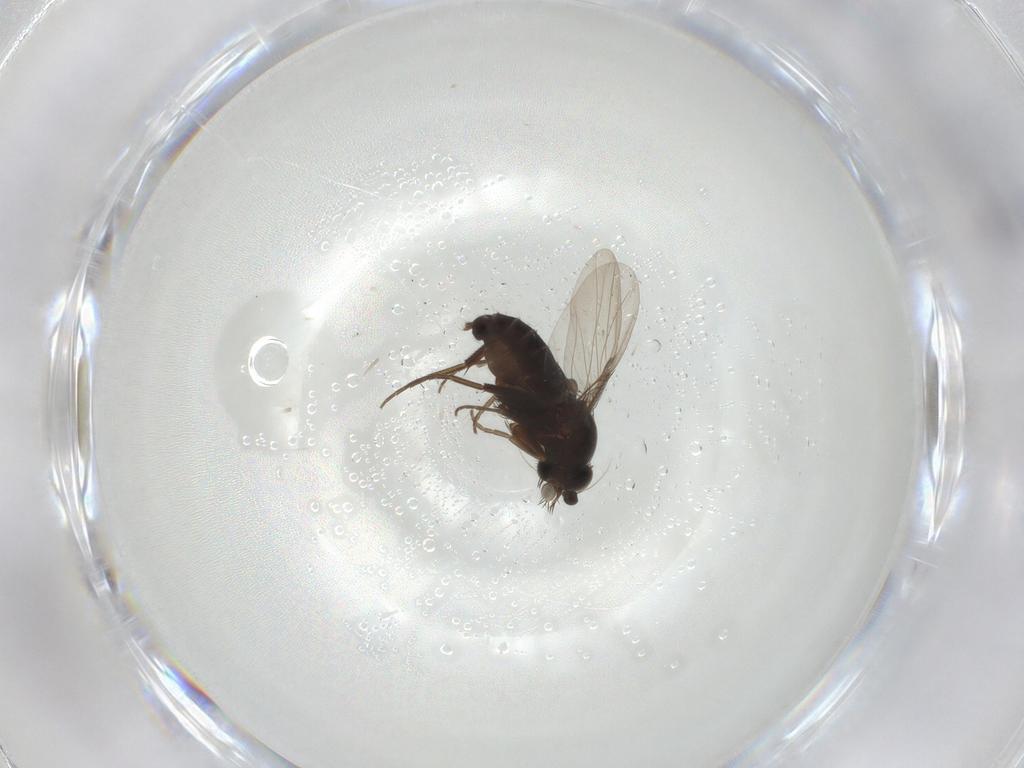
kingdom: Animalia
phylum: Arthropoda
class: Insecta
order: Diptera
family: Phoridae
